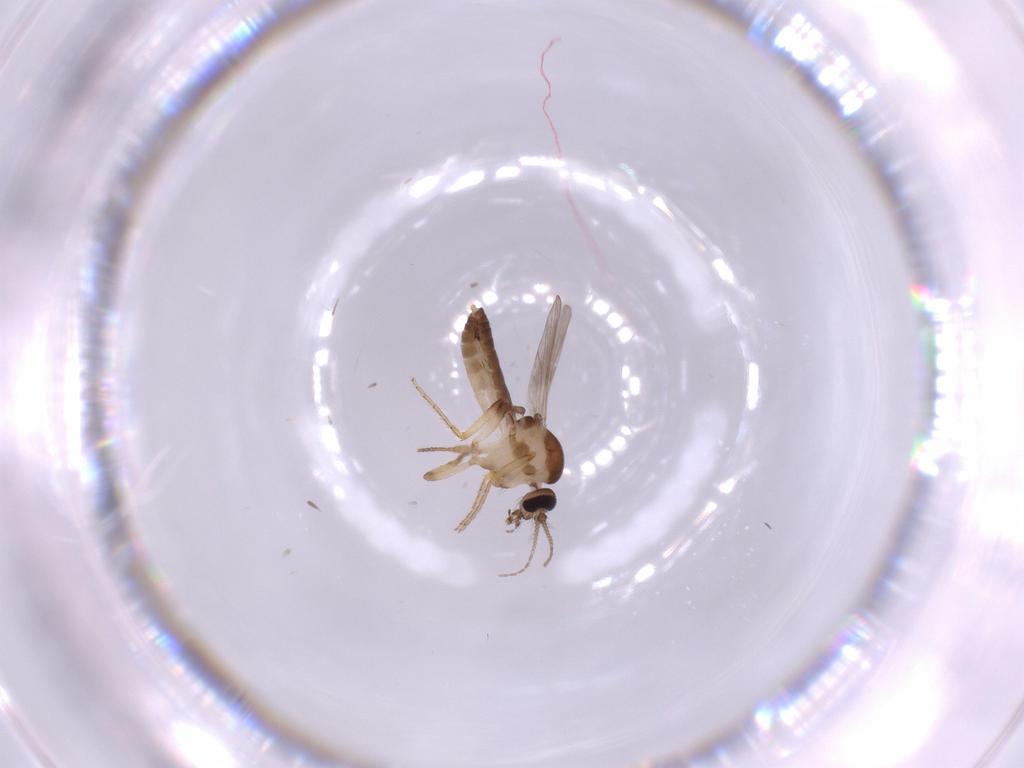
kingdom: Animalia
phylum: Arthropoda
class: Insecta
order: Diptera
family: Ceratopogonidae
